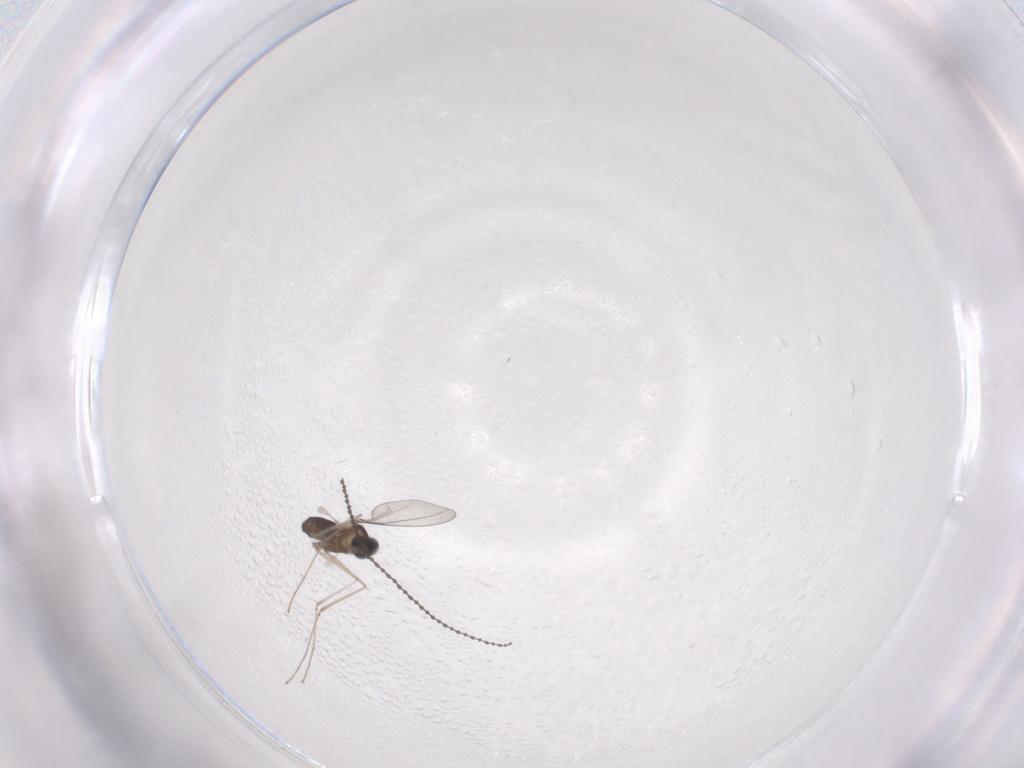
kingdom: Animalia
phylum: Arthropoda
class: Insecta
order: Diptera
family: Cecidomyiidae
